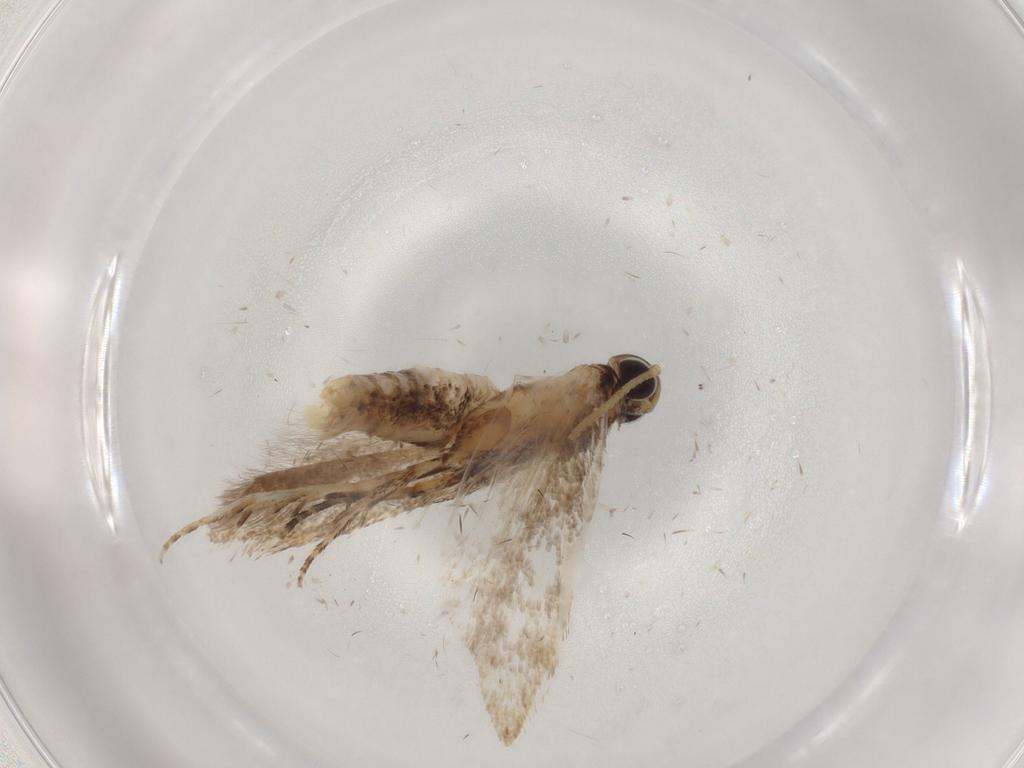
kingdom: Animalia
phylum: Arthropoda
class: Insecta
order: Lepidoptera
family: Gelechiidae
